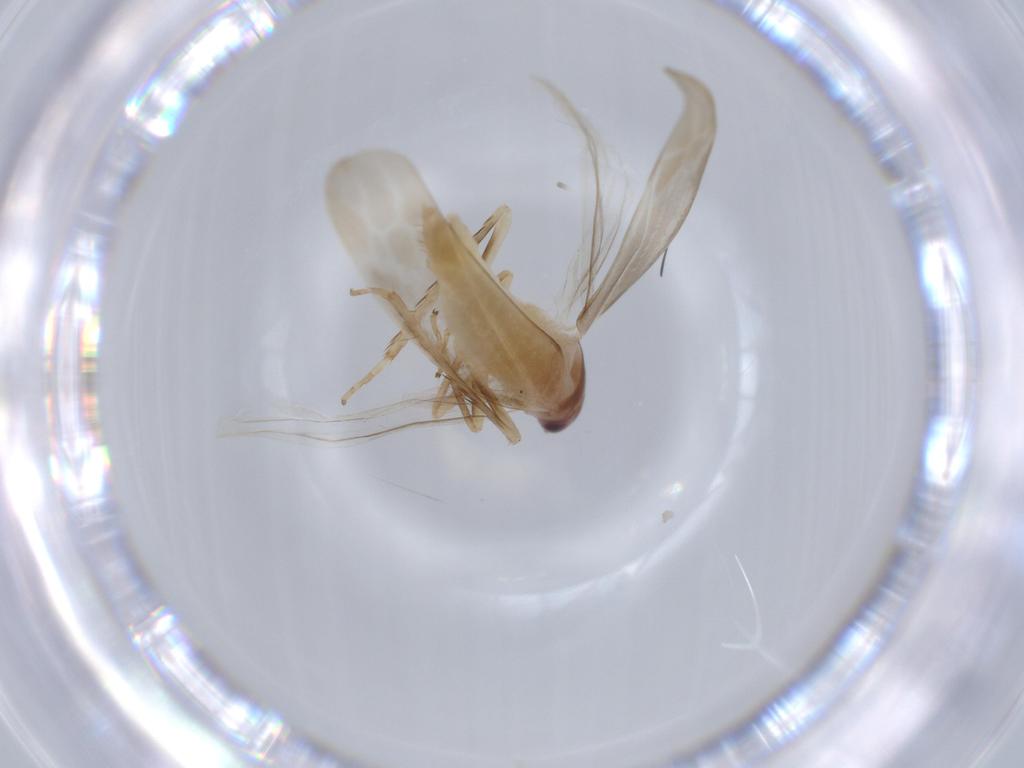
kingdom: Animalia
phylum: Arthropoda
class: Insecta
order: Hemiptera
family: Cicadellidae
